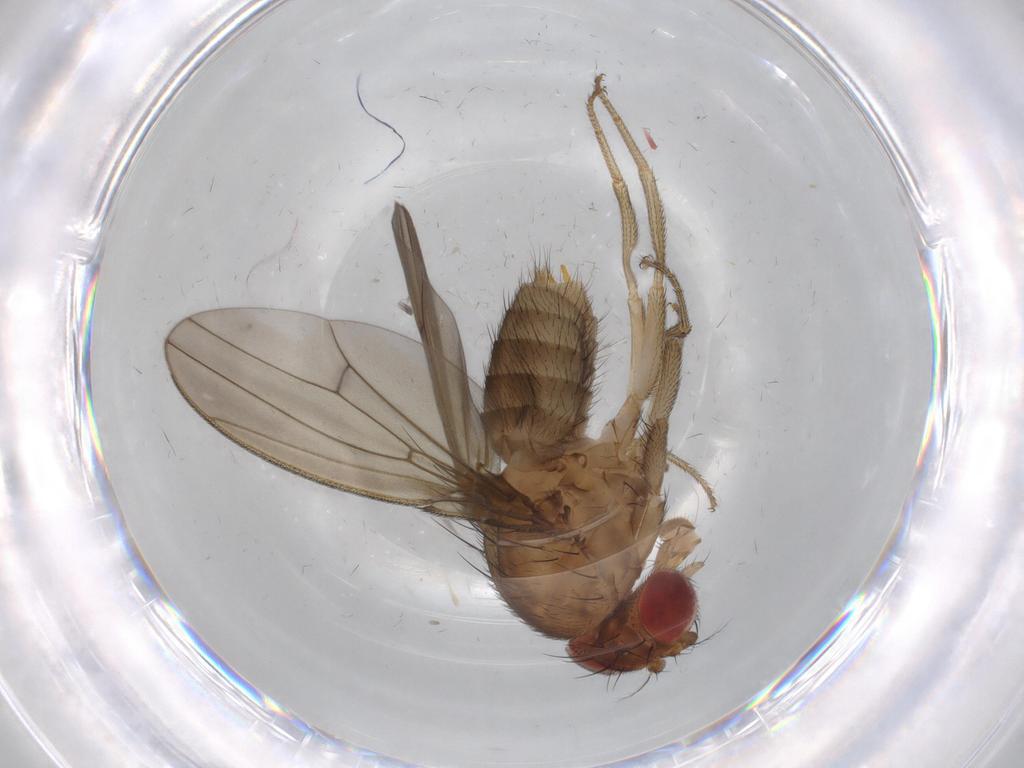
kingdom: Animalia
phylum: Arthropoda
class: Insecta
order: Diptera
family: Drosophilidae
